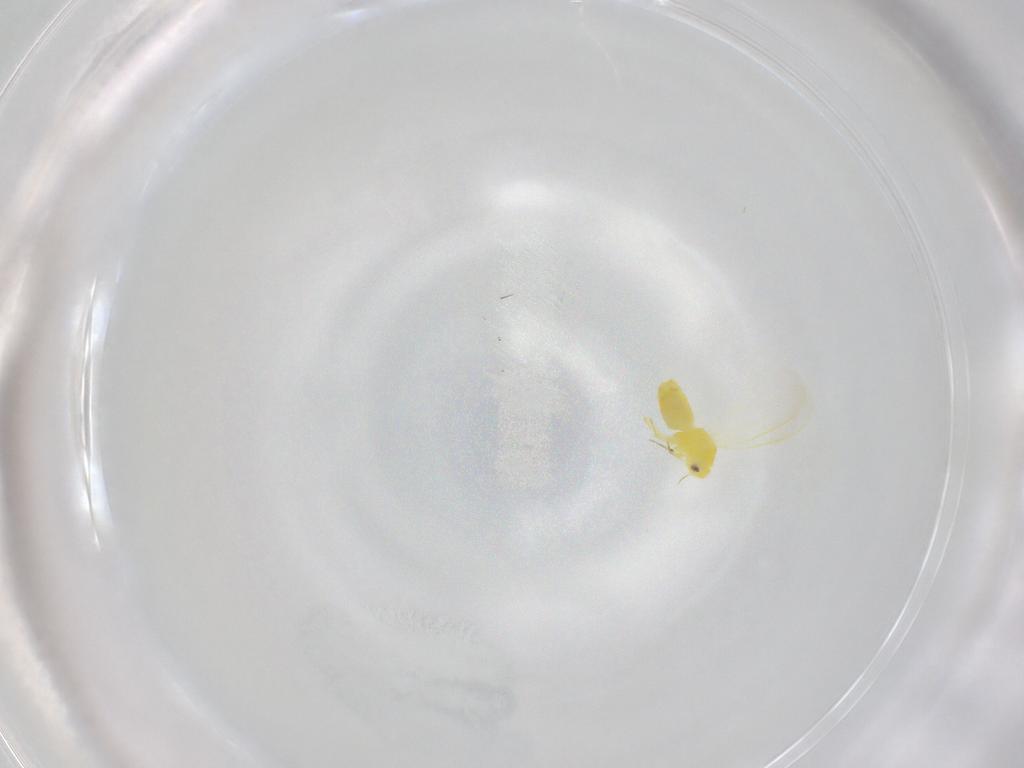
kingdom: Animalia
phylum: Arthropoda
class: Insecta
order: Hemiptera
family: Aleyrodidae
